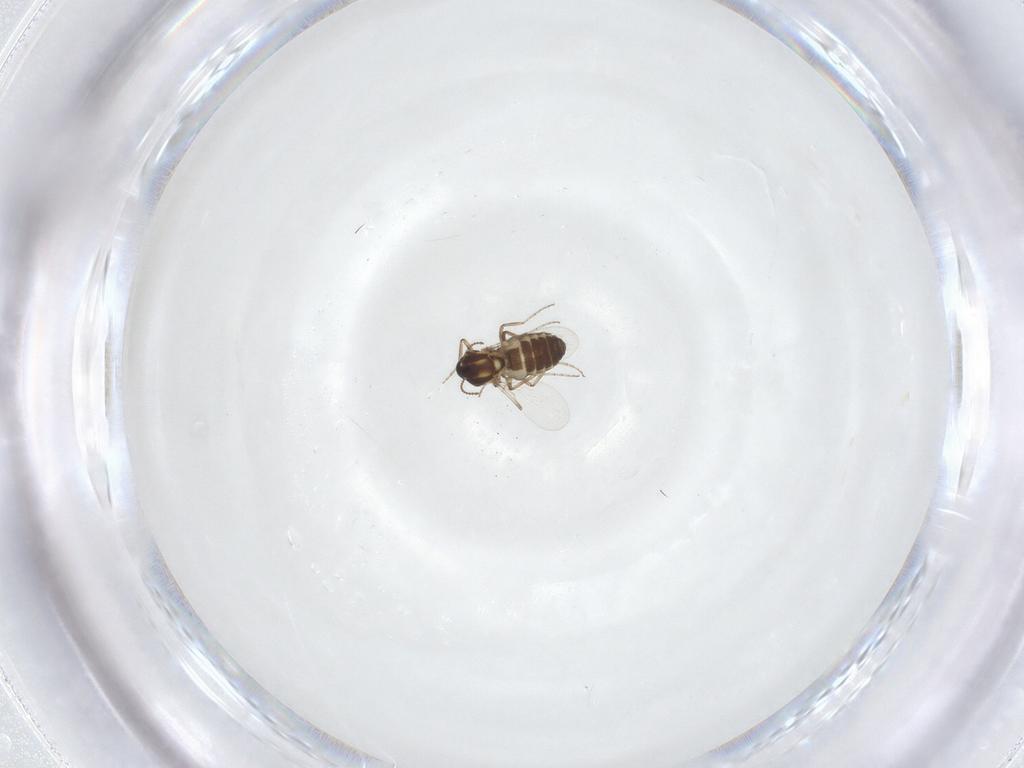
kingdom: Animalia
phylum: Arthropoda
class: Insecta
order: Diptera
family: Ceratopogonidae
